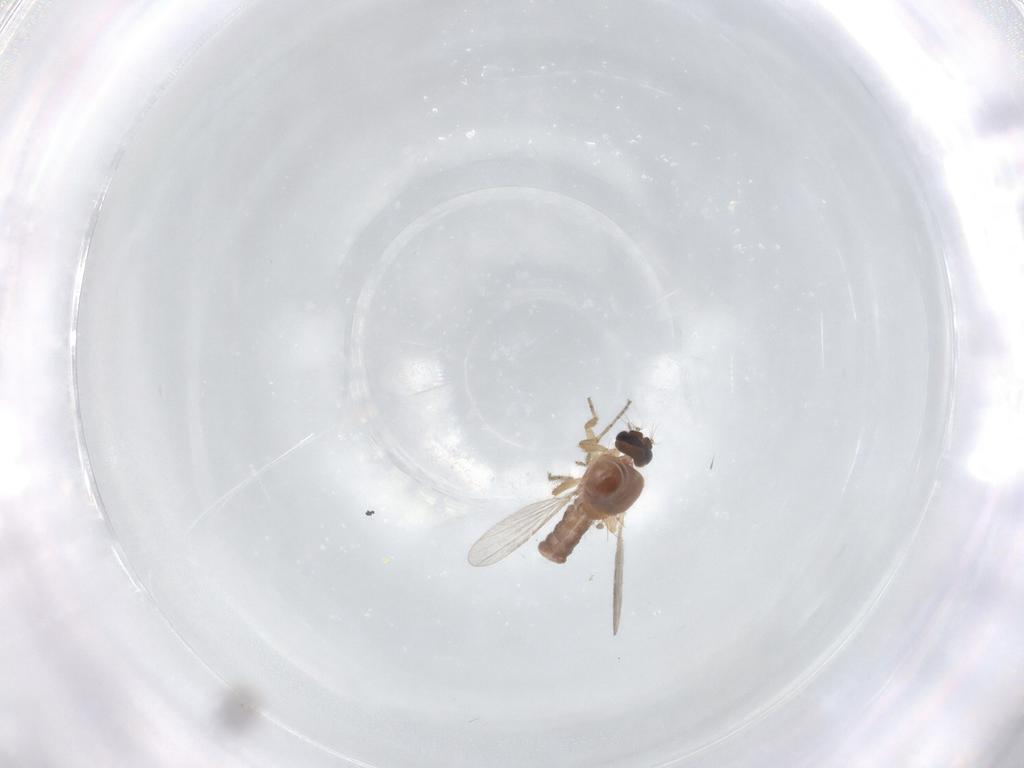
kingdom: Animalia
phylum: Arthropoda
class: Insecta
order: Diptera
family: Ceratopogonidae
